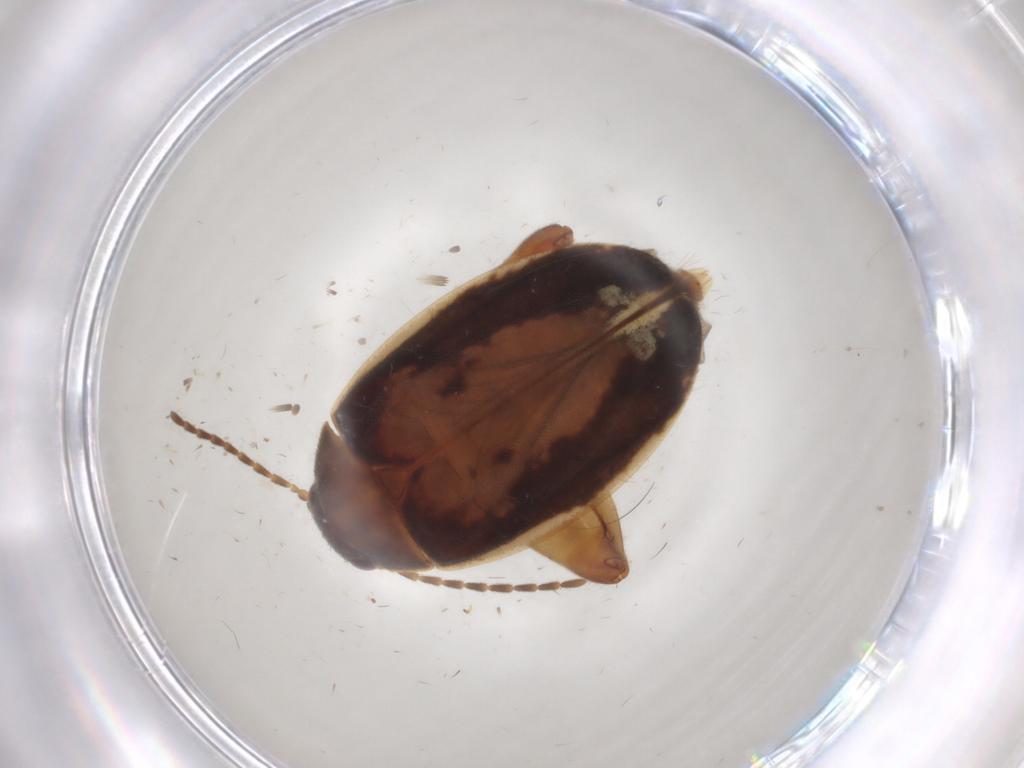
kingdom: Animalia
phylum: Arthropoda
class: Insecta
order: Coleoptera
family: Scirtidae
